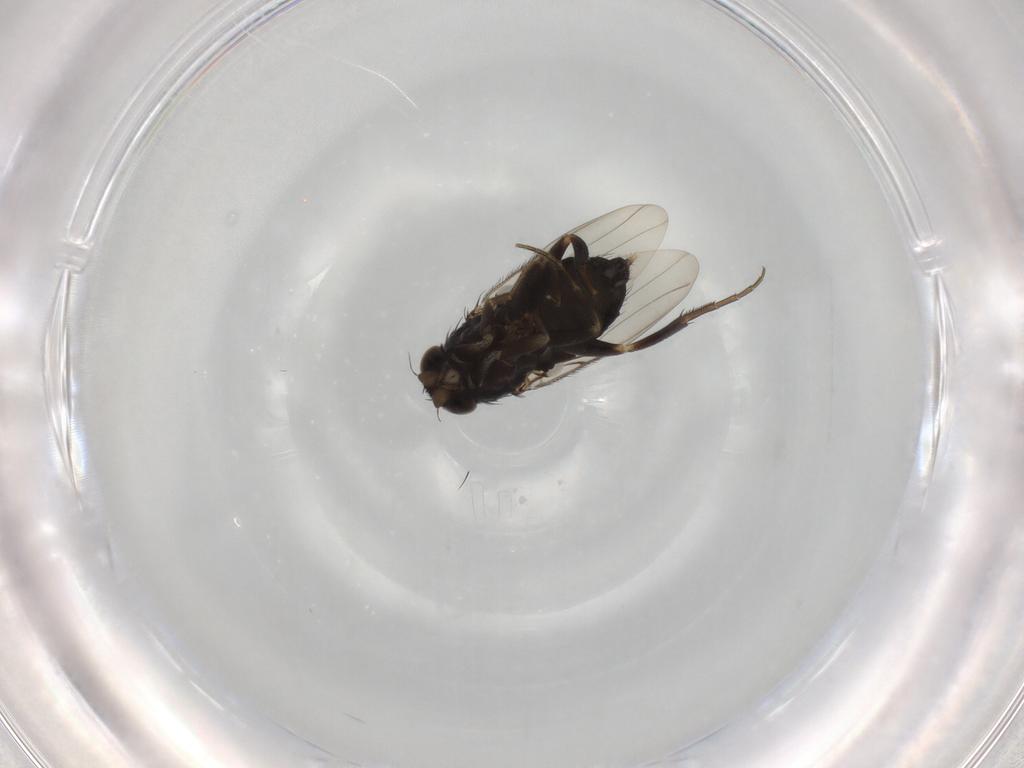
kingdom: Animalia
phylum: Arthropoda
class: Insecta
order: Diptera
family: Phoridae
